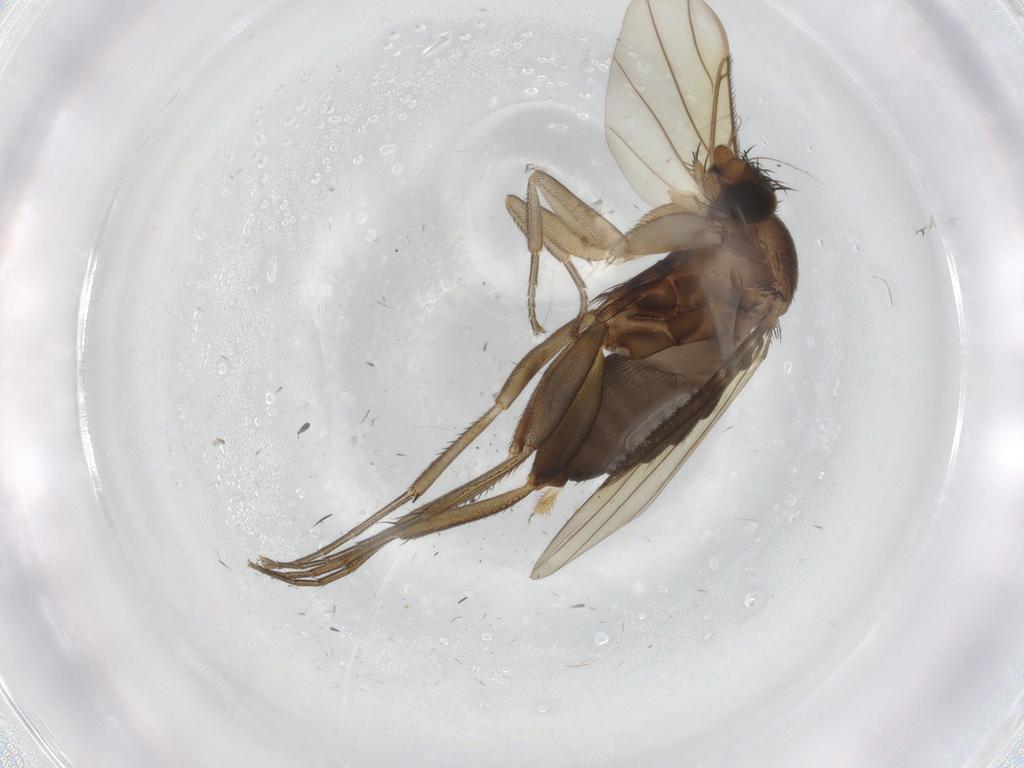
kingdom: Animalia
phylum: Arthropoda
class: Insecta
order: Diptera
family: Phoridae
